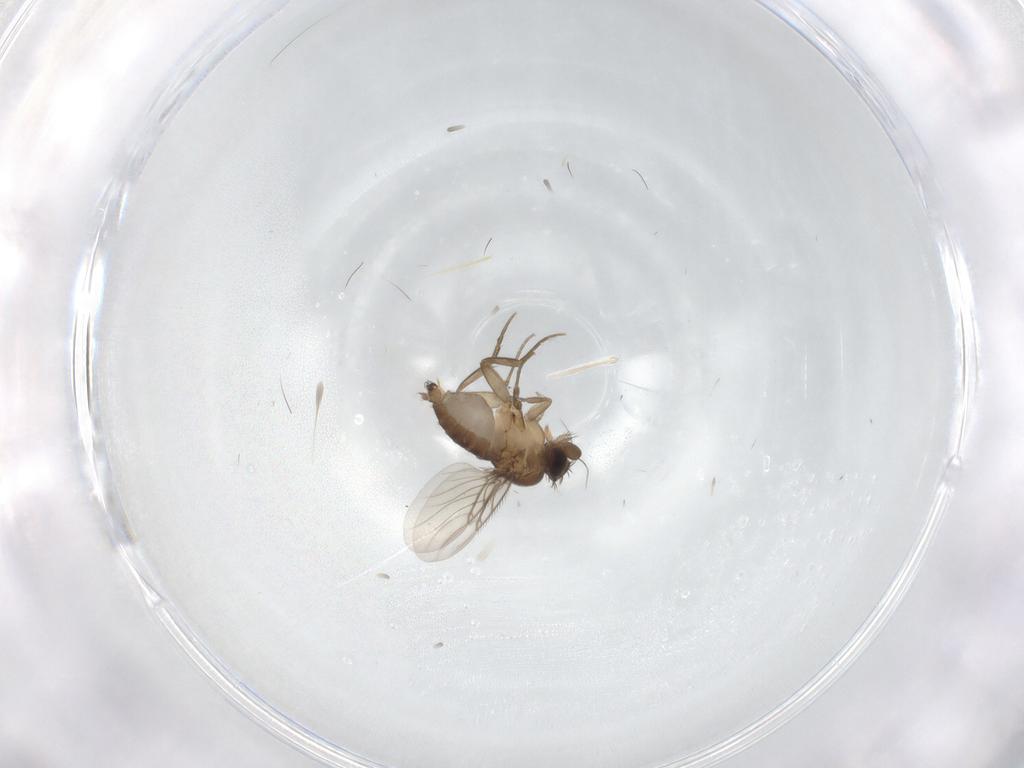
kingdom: Animalia
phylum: Arthropoda
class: Insecta
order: Diptera
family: Phoridae
